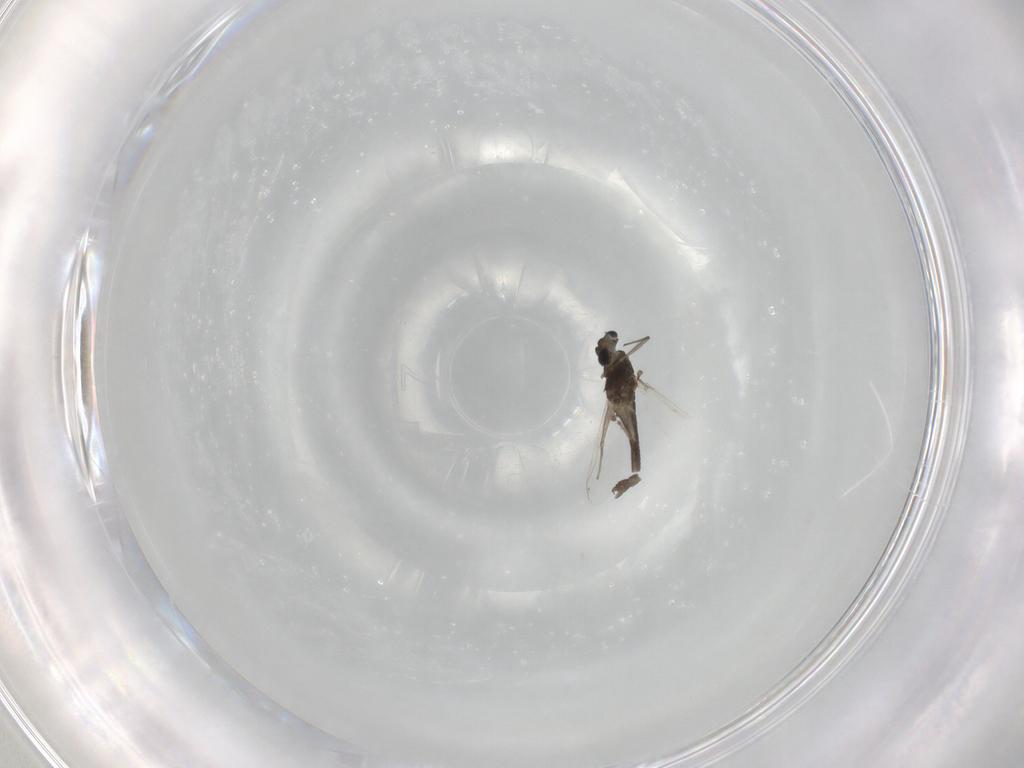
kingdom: Animalia
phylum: Arthropoda
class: Insecta
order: Diptera
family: Chironomidae
